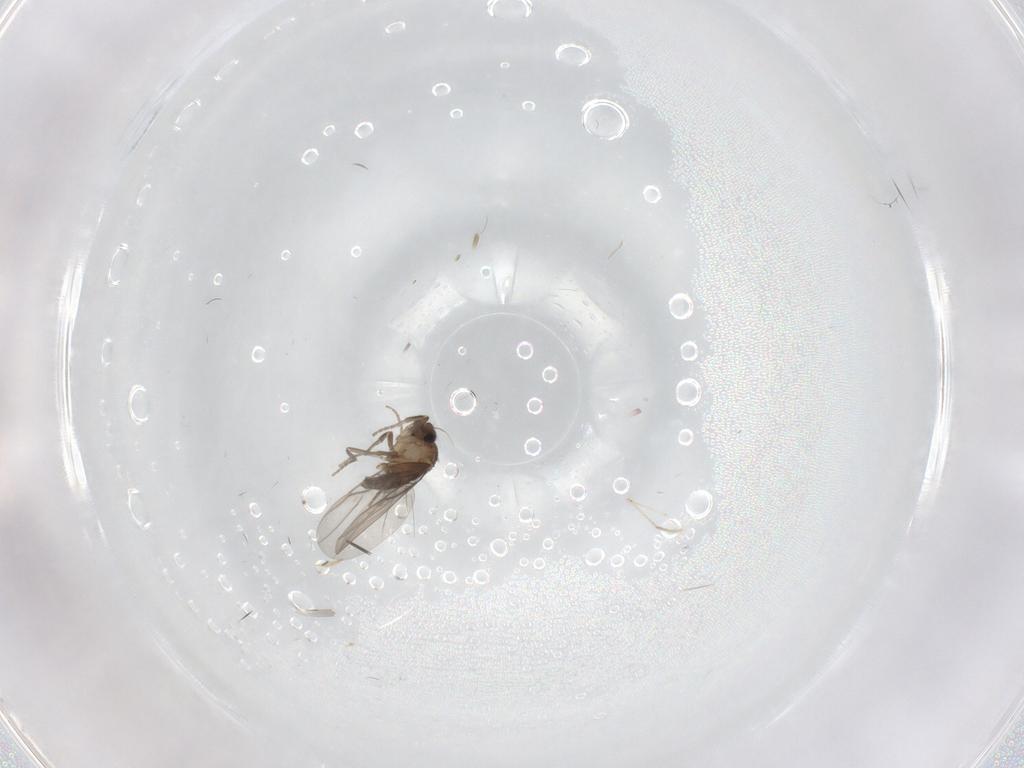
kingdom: Animalia
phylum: Arthropoda
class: Insecta
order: Diptera
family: Chironomidae
